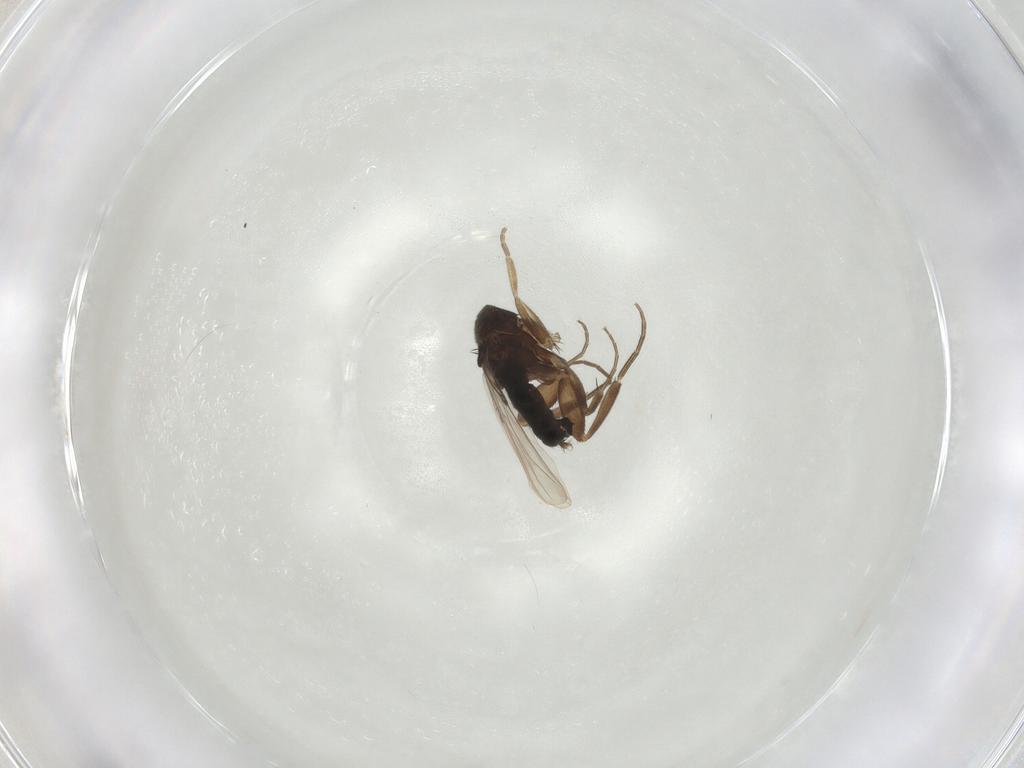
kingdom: Animalia
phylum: Arthropoda
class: Insecta
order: Diptera
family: Phoridae
